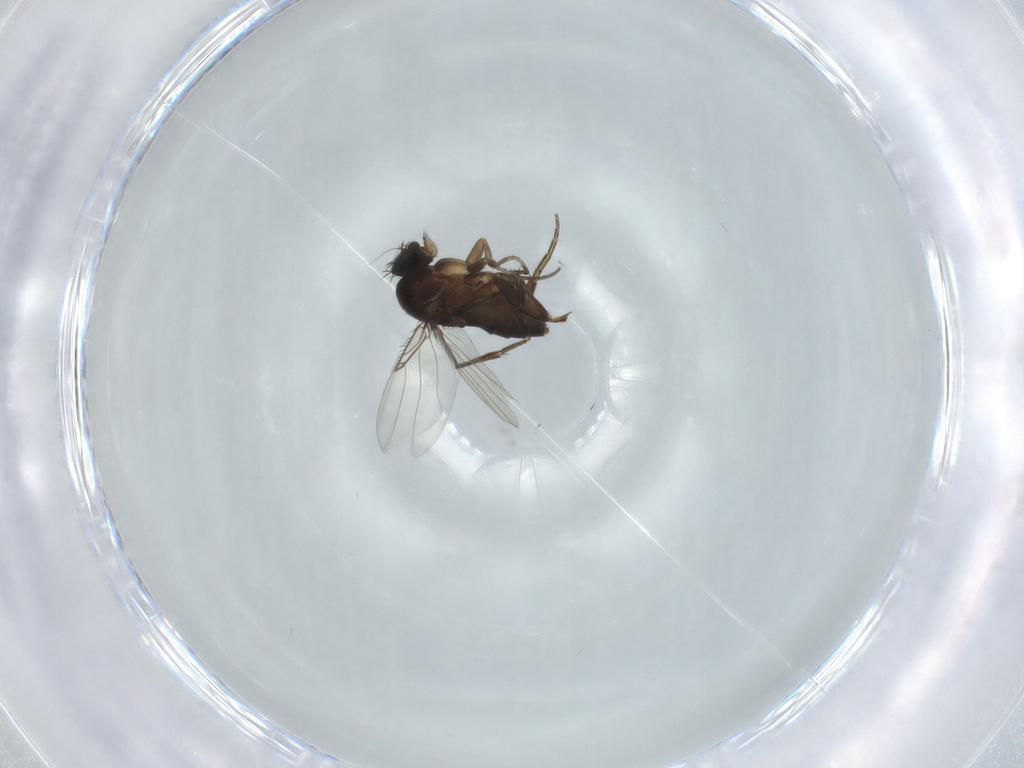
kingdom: Animalia
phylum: Arthropoda
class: Insecta
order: Diptera
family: Phoridae
